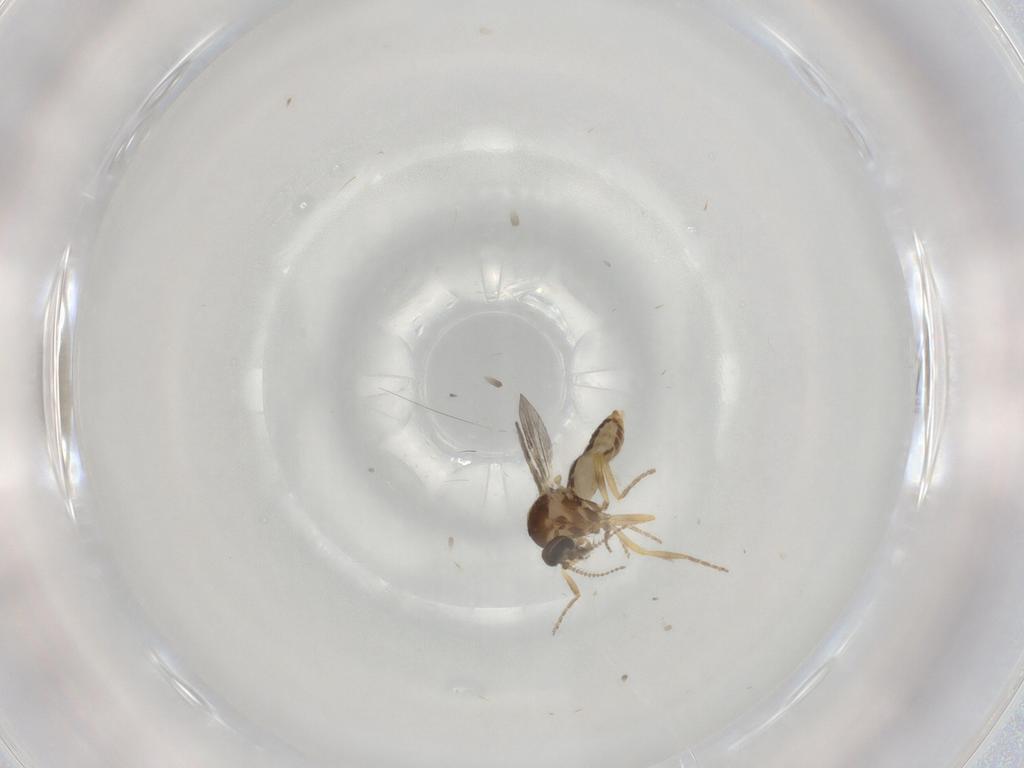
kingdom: Animalia
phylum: Arthropoda
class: Insecta
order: Diptera
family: Ceratopogonidae
